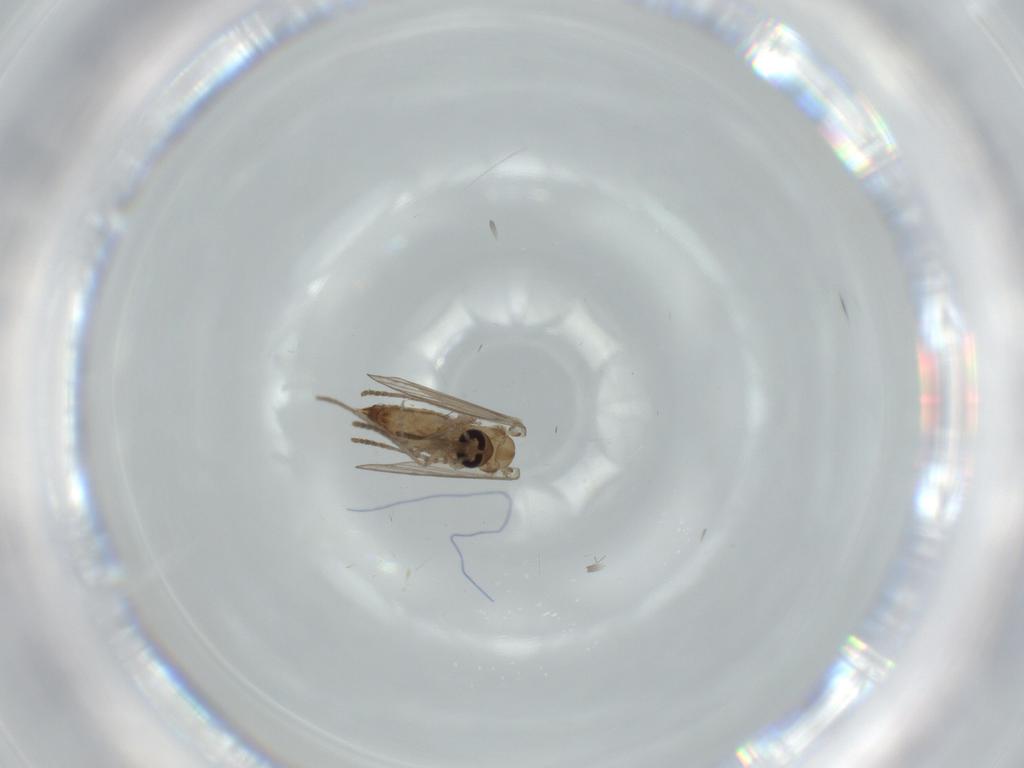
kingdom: Animalia
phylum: Arthropoda
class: Insecta
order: Diptera
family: Psychodidae
